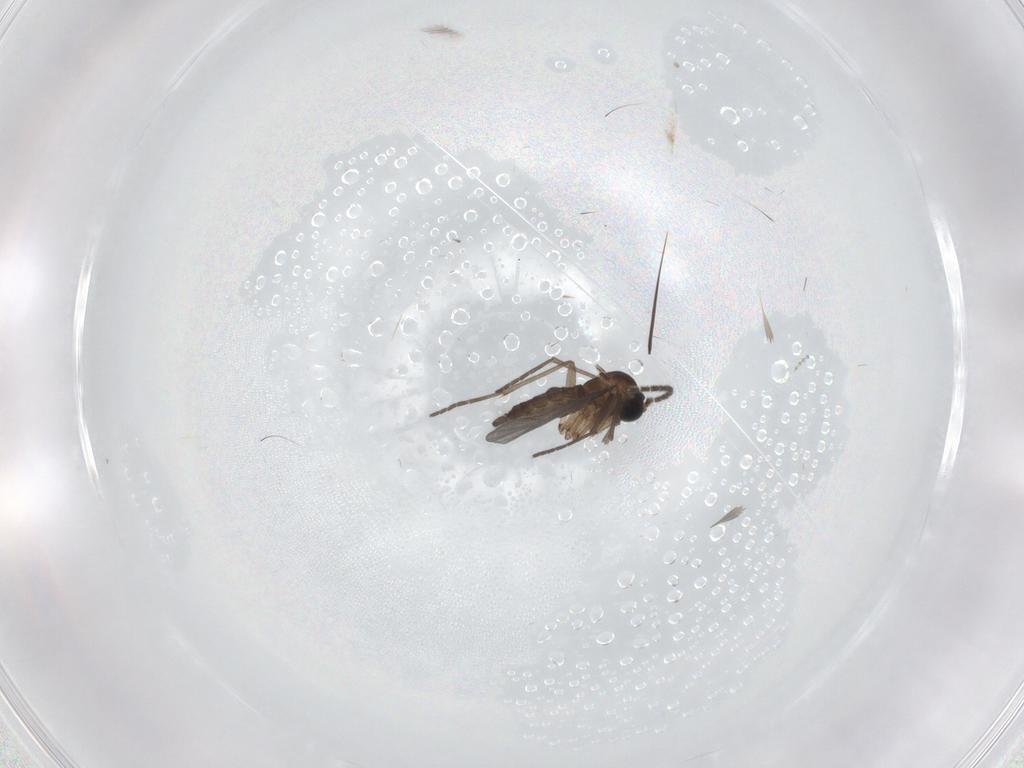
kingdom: Animalia
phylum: Arthropoda
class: Insecta
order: Diptera
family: Sciaridae
